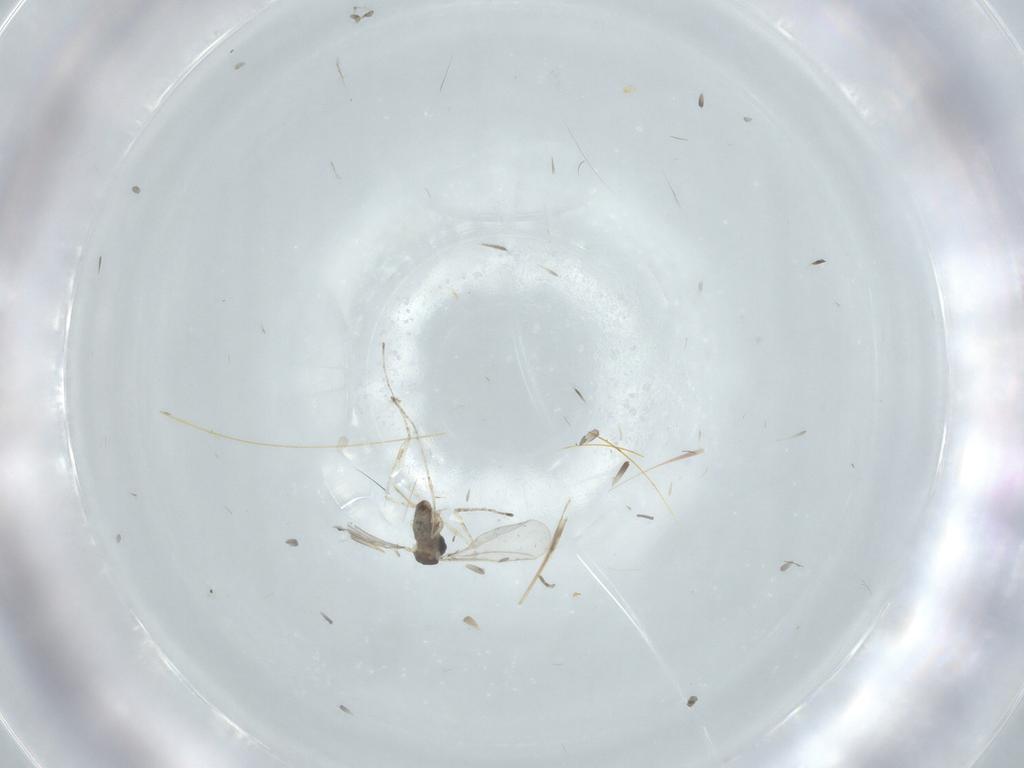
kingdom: Animalia
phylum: Arthropoda
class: Insecta
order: Diptera
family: Cecidomyiidae
